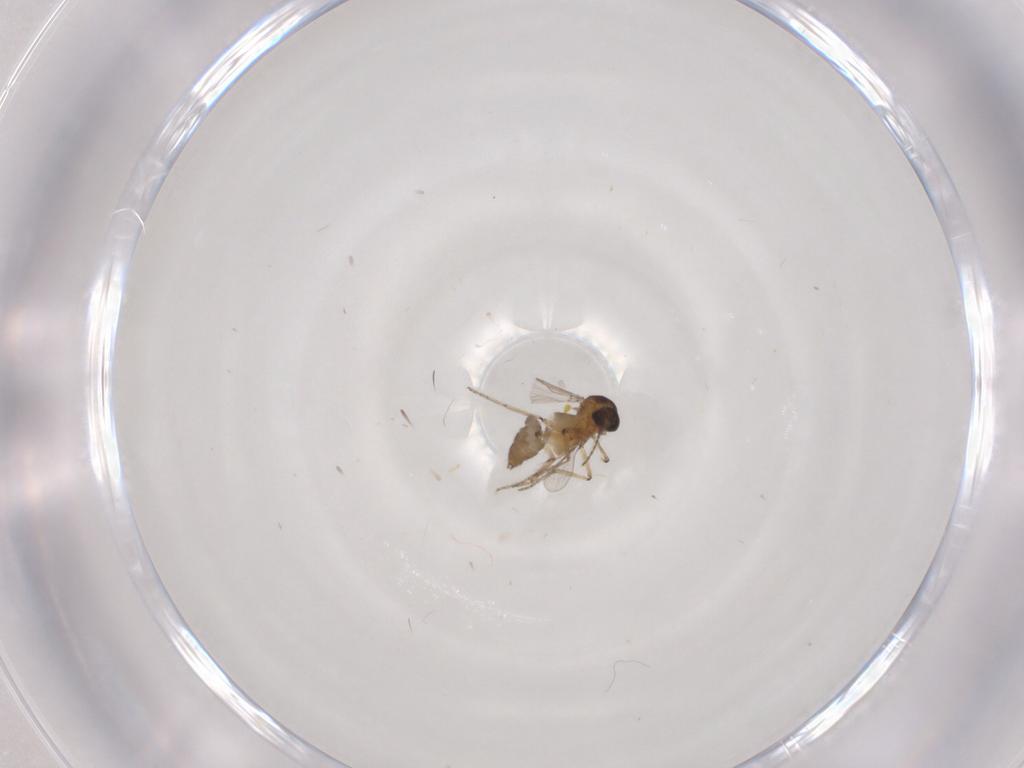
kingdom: Animalia
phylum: Arthropoda
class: Insecta
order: Diptera
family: Ceratopogonidae
